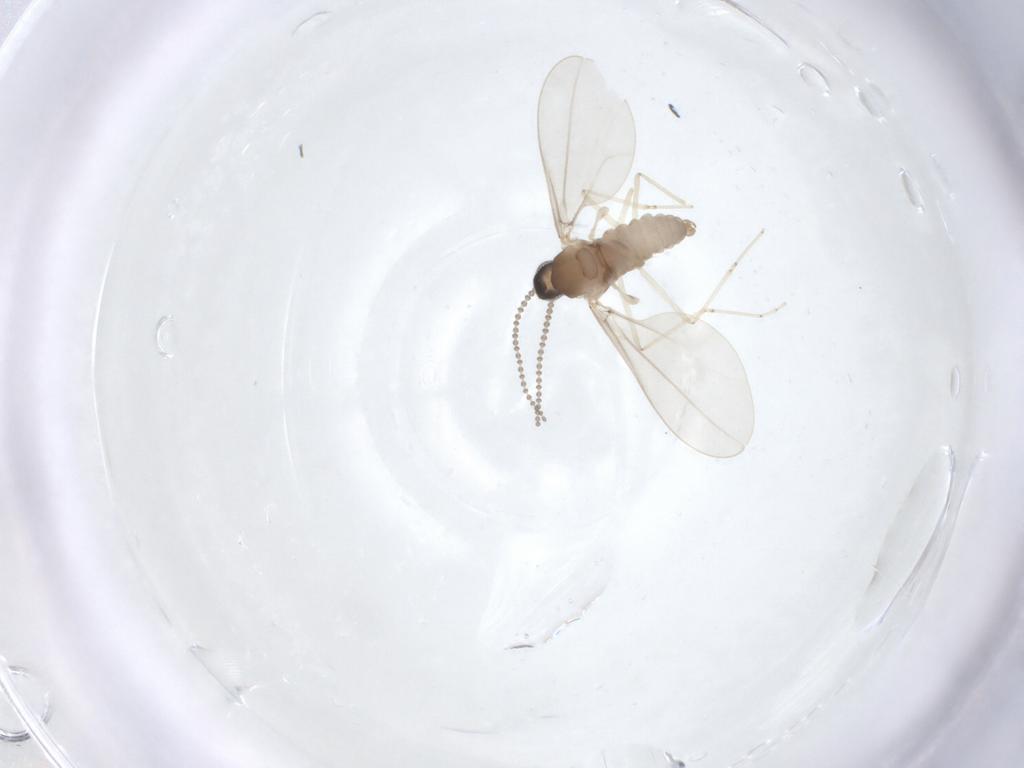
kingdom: Animalia
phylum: Arthropoda
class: Insecta
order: Diptera
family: Cecidomyiidae
